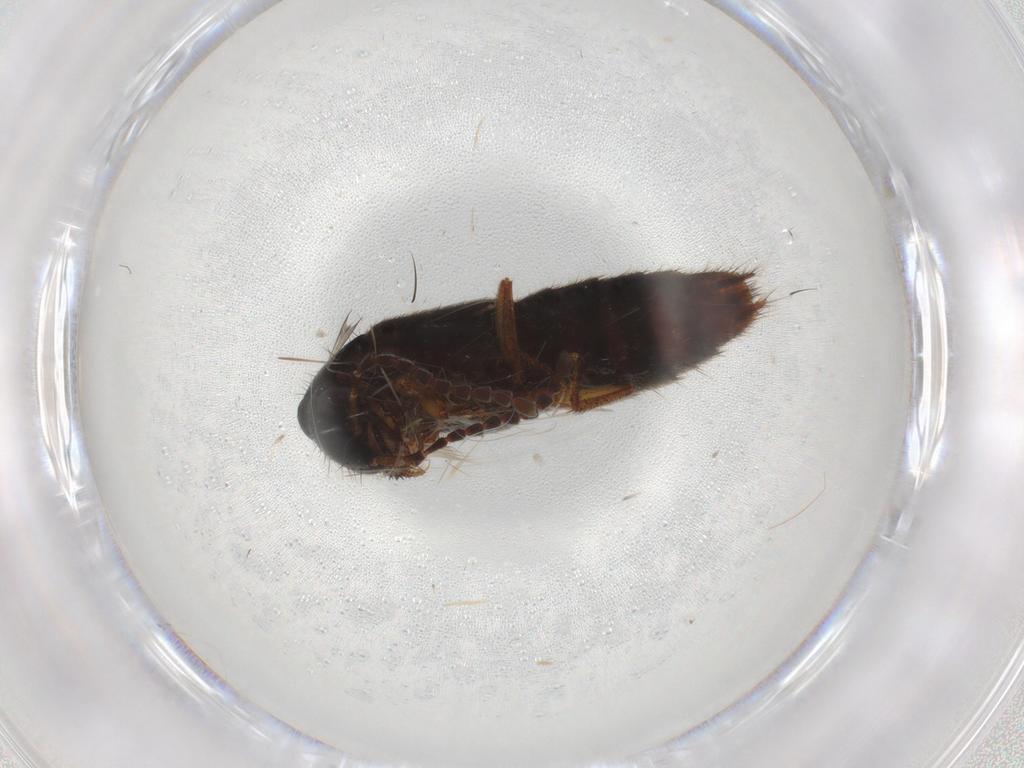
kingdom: Animalia
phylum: Arthropoda
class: Insecta
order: Coleoptera
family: Staphylinidae
